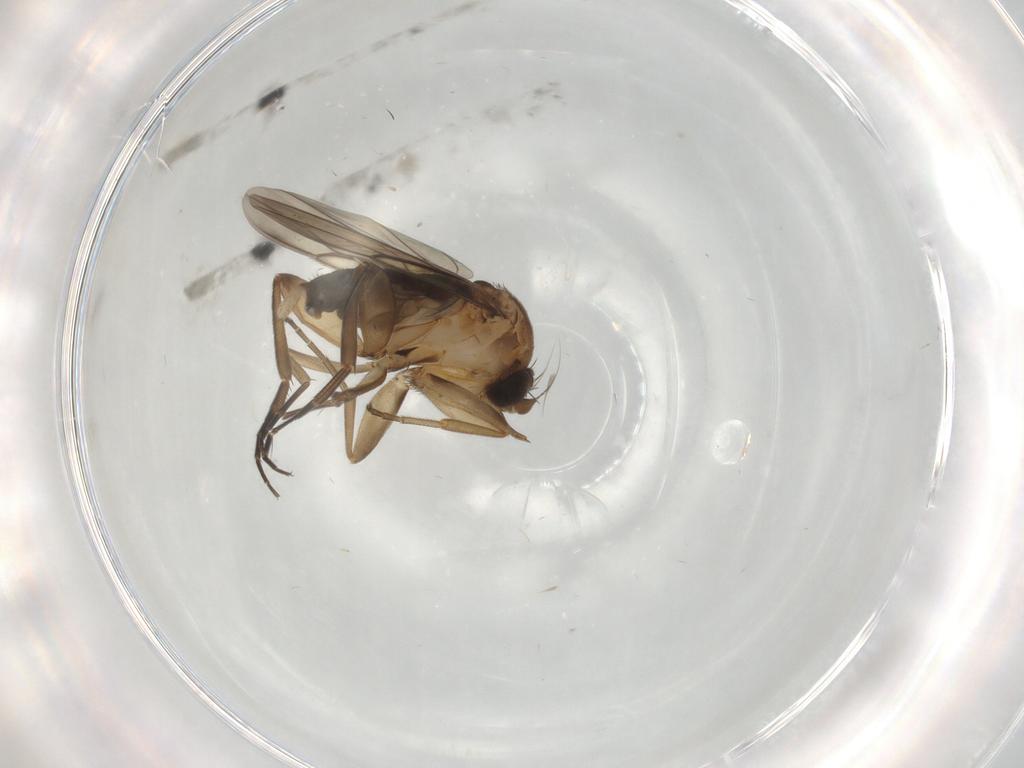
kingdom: Animalia
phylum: Arthropoda
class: Insecta
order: Diptera
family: Phoridae
